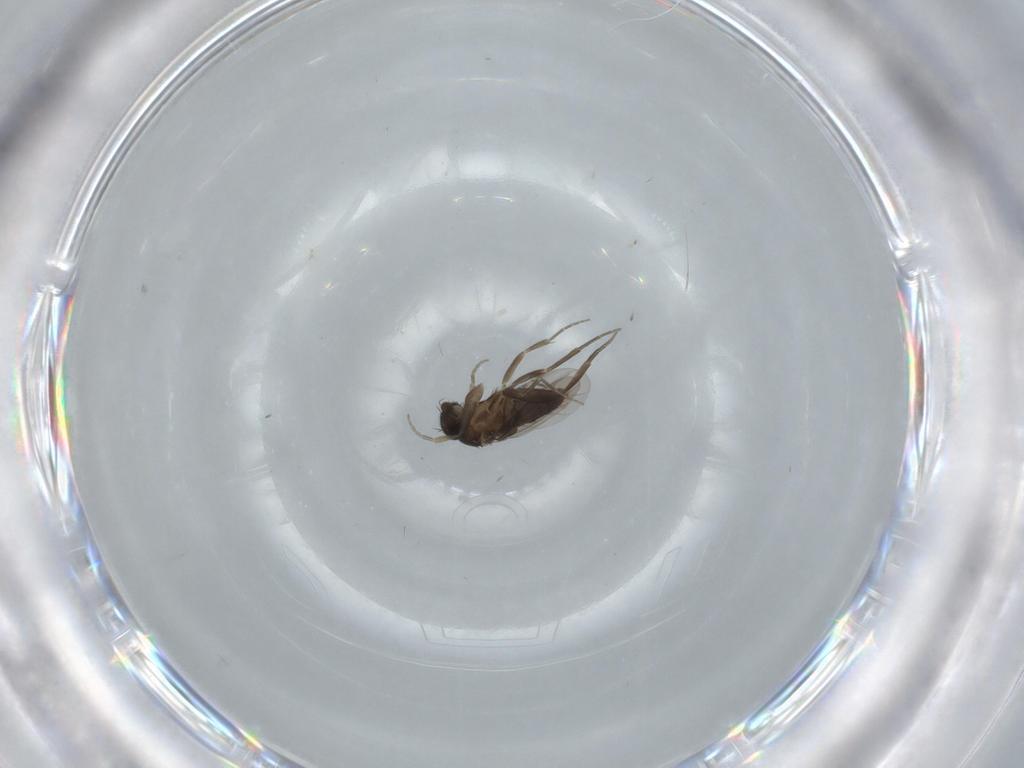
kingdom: Animalia
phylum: Arthropoda
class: Insecta
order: Diptera
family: Phoridae
